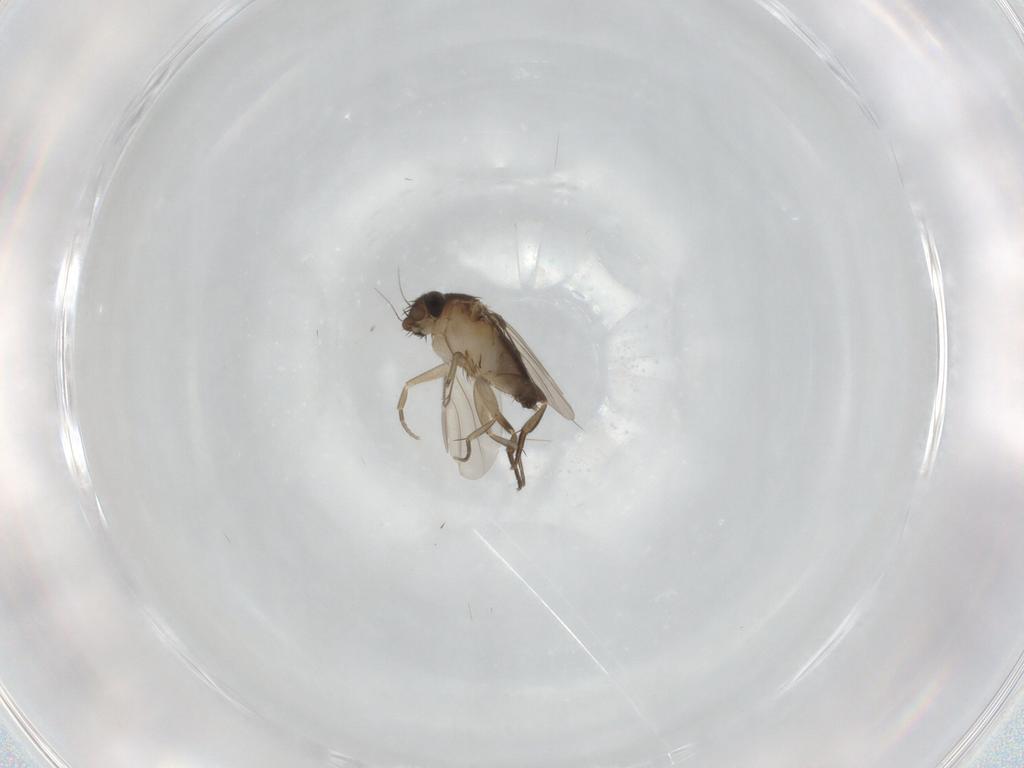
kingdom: Animalia
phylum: Arthropoda
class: Insecta
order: Diptera
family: Phoridae
